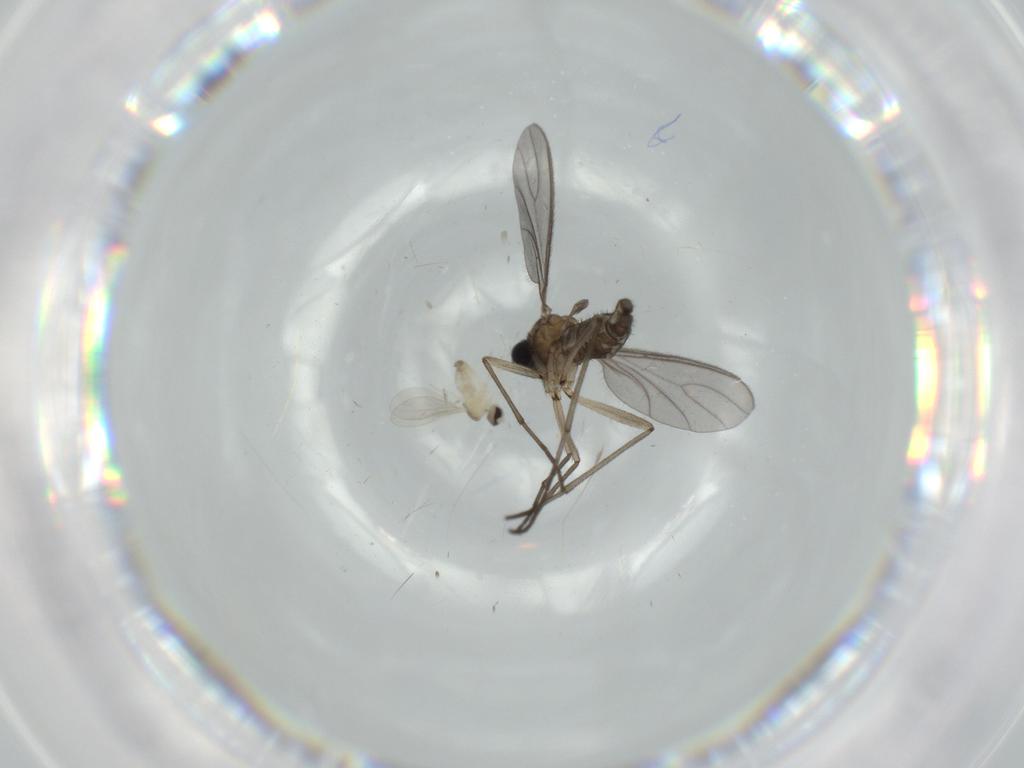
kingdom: Animalia
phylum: Arthropoda
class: Insecta
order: Diptera
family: Cecidomyiidae
